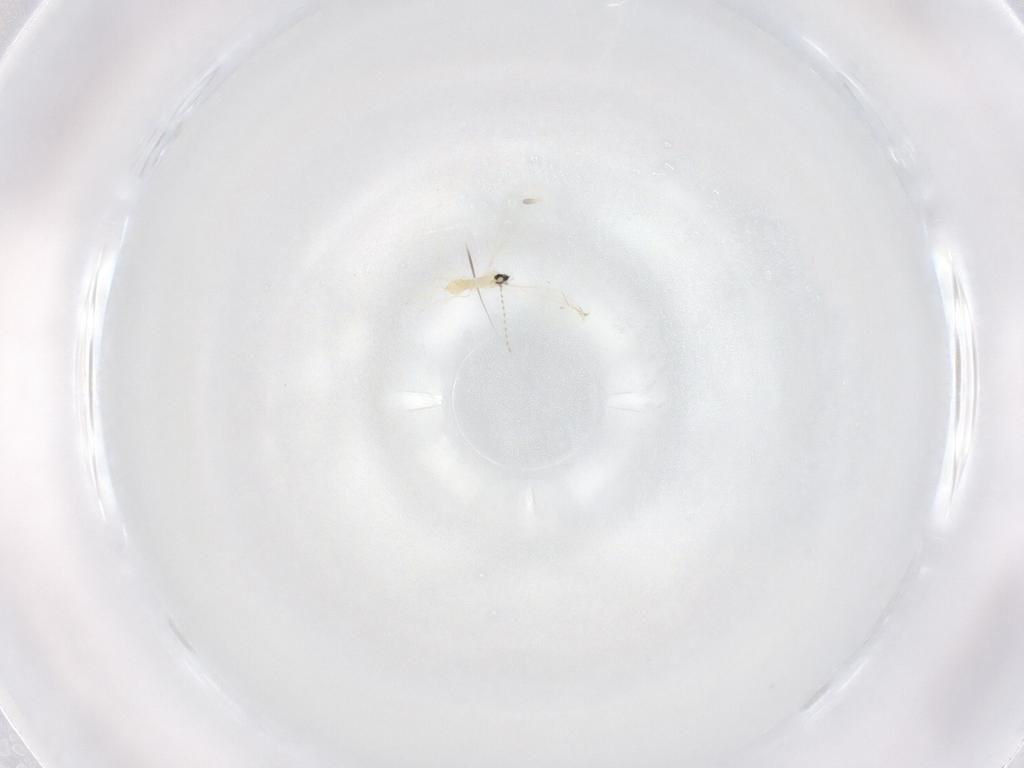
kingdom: Animalia
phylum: Arthropoda
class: Insecta
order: Diptera
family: Cecidomyiidae
